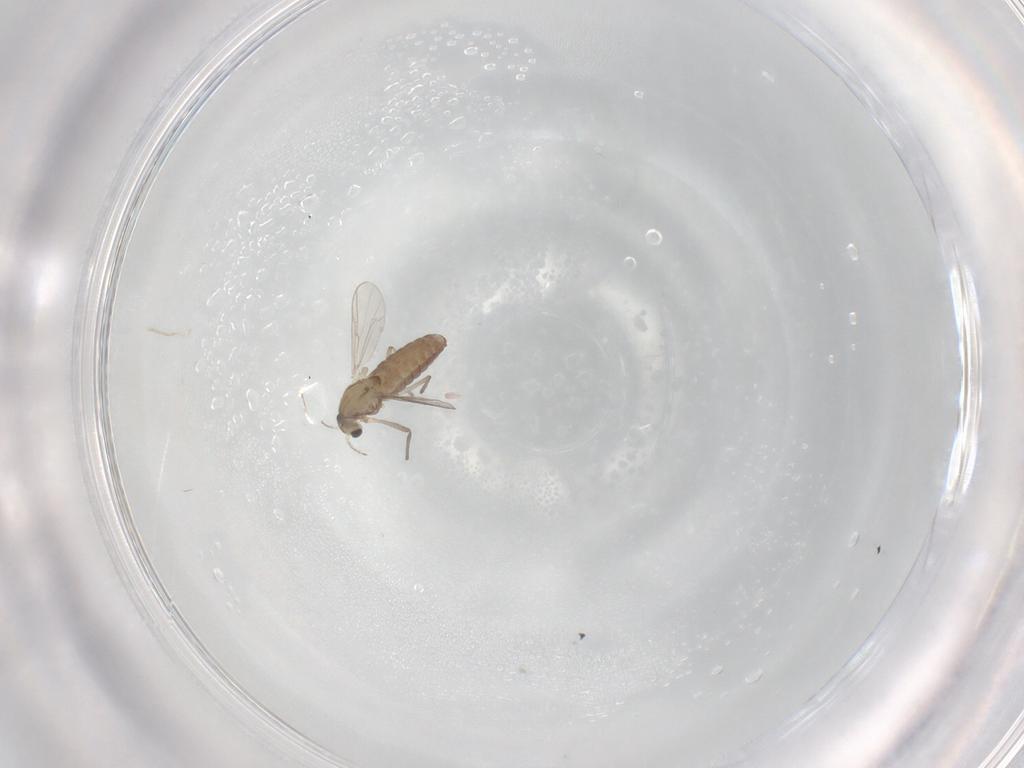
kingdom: Animalia
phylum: Arthropoda
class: Insecta
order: Diptera
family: Chironomidae
